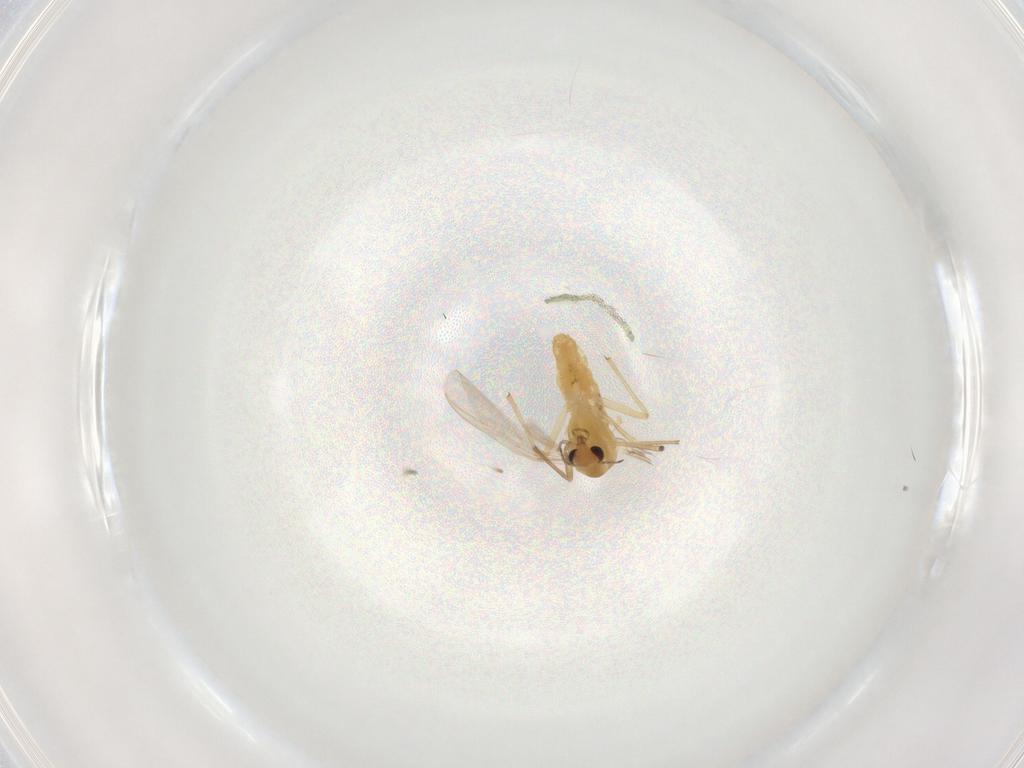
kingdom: Animalia
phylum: Arthropoda
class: Insecta
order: Diptera
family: Chironomidae
